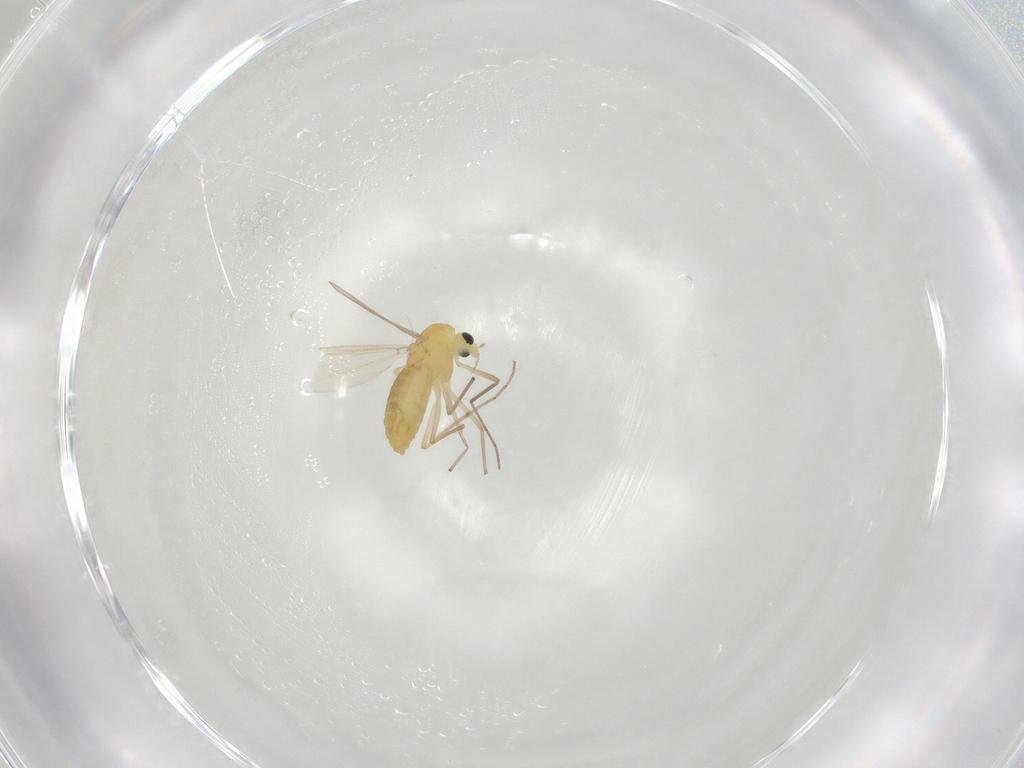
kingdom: Animalia
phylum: Arthropoda
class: Insecta
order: Diptera
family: Chironomidae
